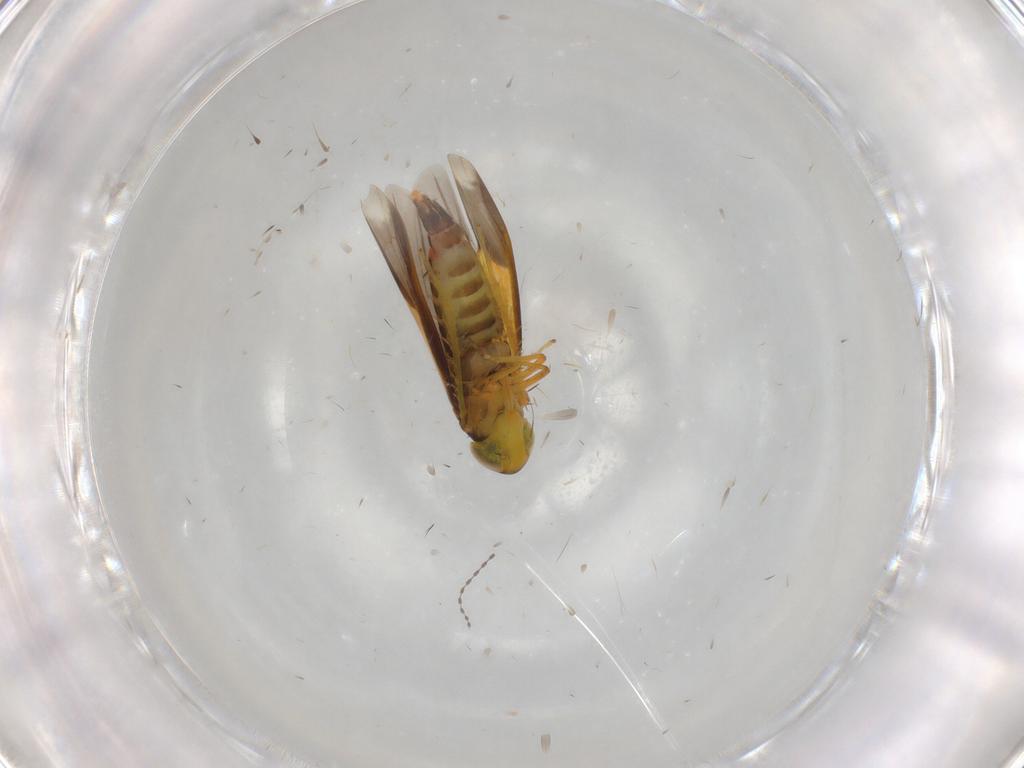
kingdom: Animalia
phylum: Arthropoda
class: Insecta
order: Hemiptera
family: Cicadellidae
